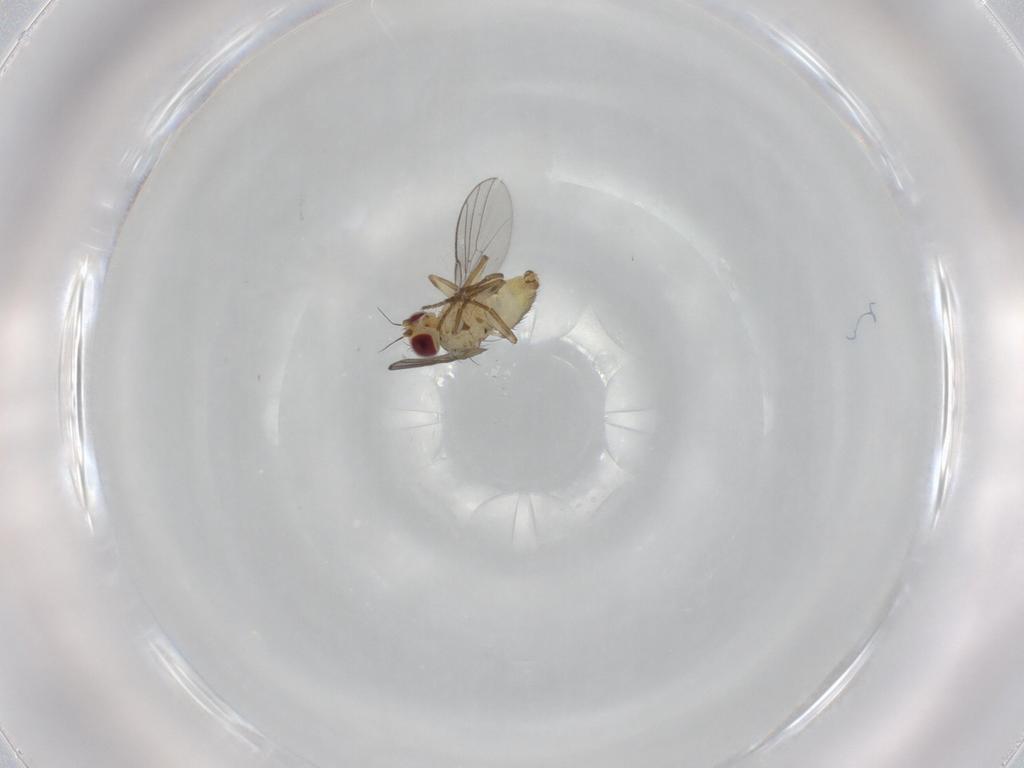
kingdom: Animalia
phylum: Arthropoda
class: Insecta
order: Diptera
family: Agromyzidae
